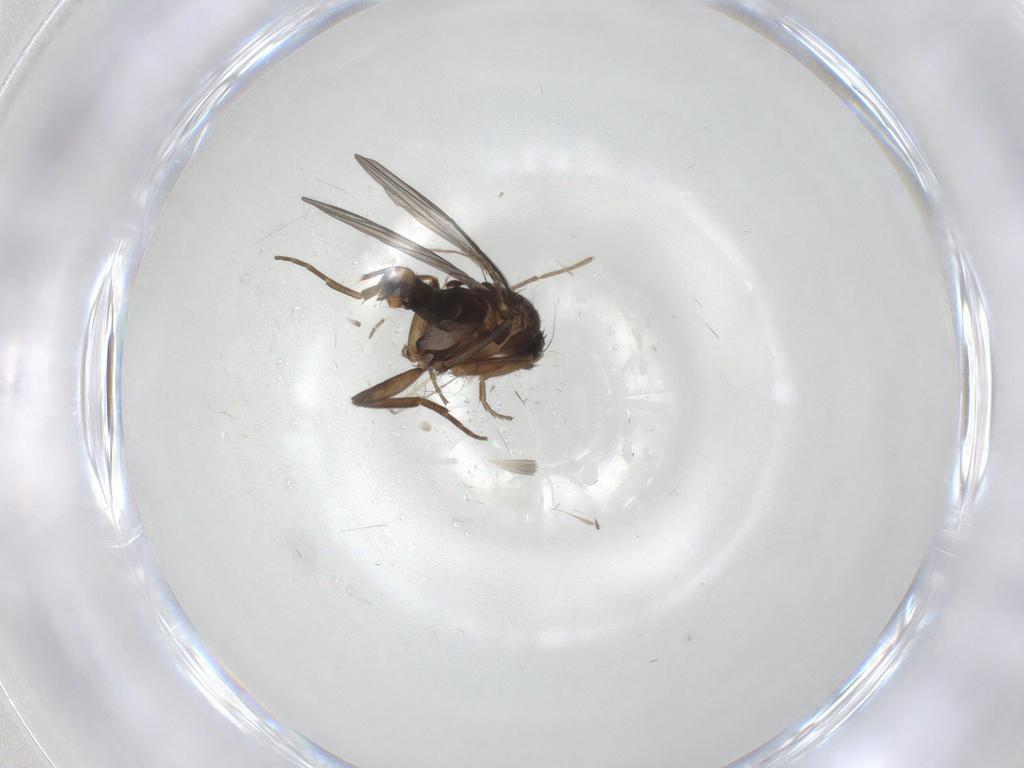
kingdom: Animalia
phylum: Arthropoda
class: Insecta
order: Diptera
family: Chironomidae
